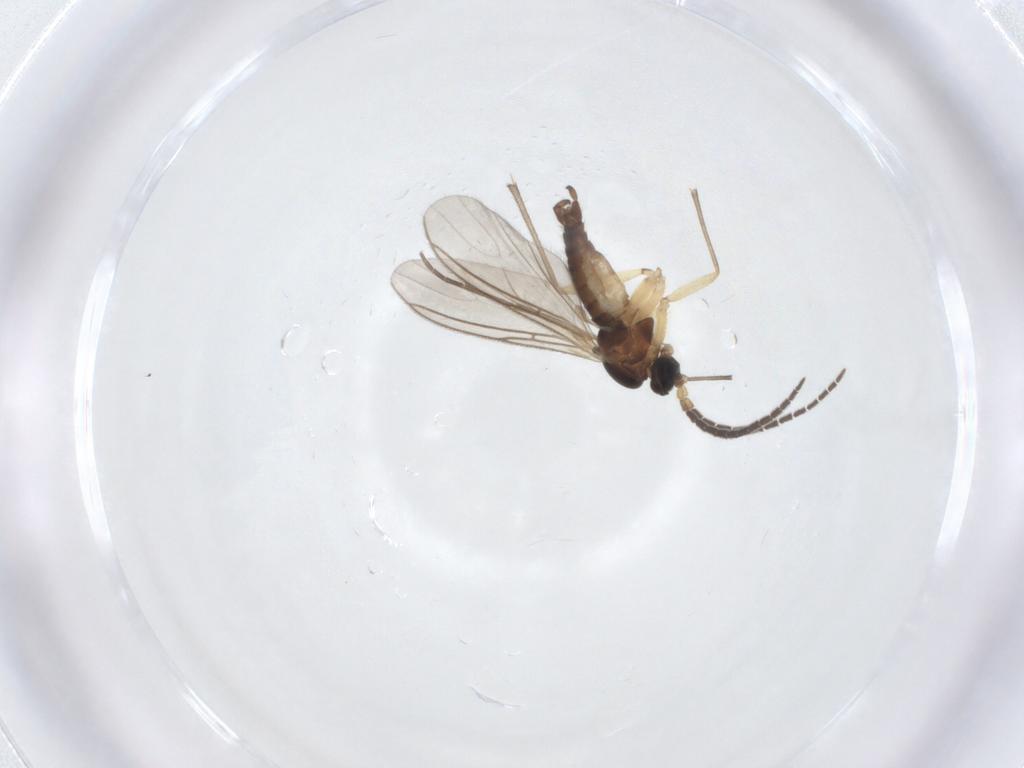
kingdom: Animalia
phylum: Arthropoda
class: Insecta
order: Diptera
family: Sciaridae
